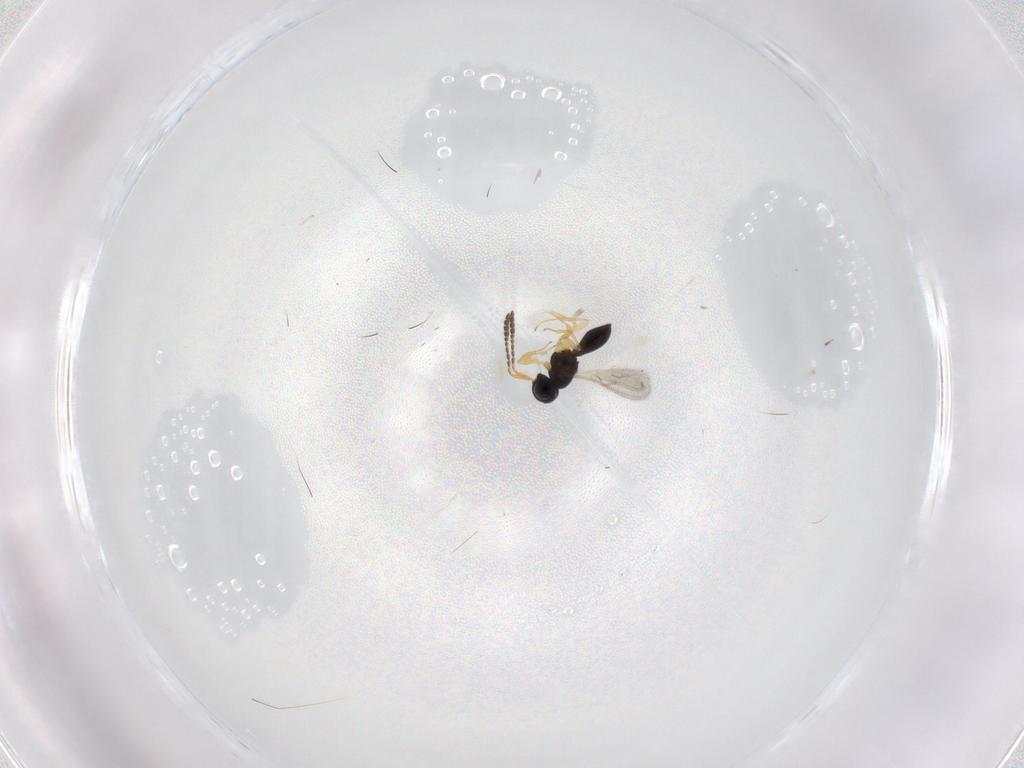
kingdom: Animalia
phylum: Arthropoda
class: Insecta
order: Hymenoptera
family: Scelionidae
